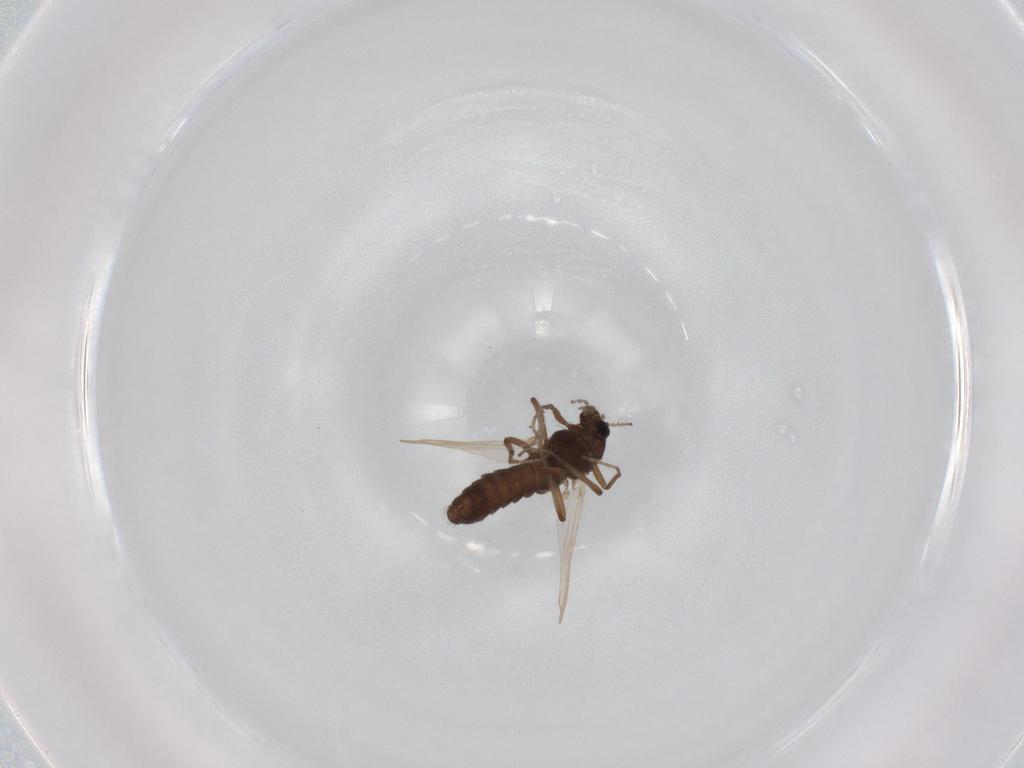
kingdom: Animalia
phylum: Arthropoda
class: Insecta
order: Diptera
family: Chironomidae
